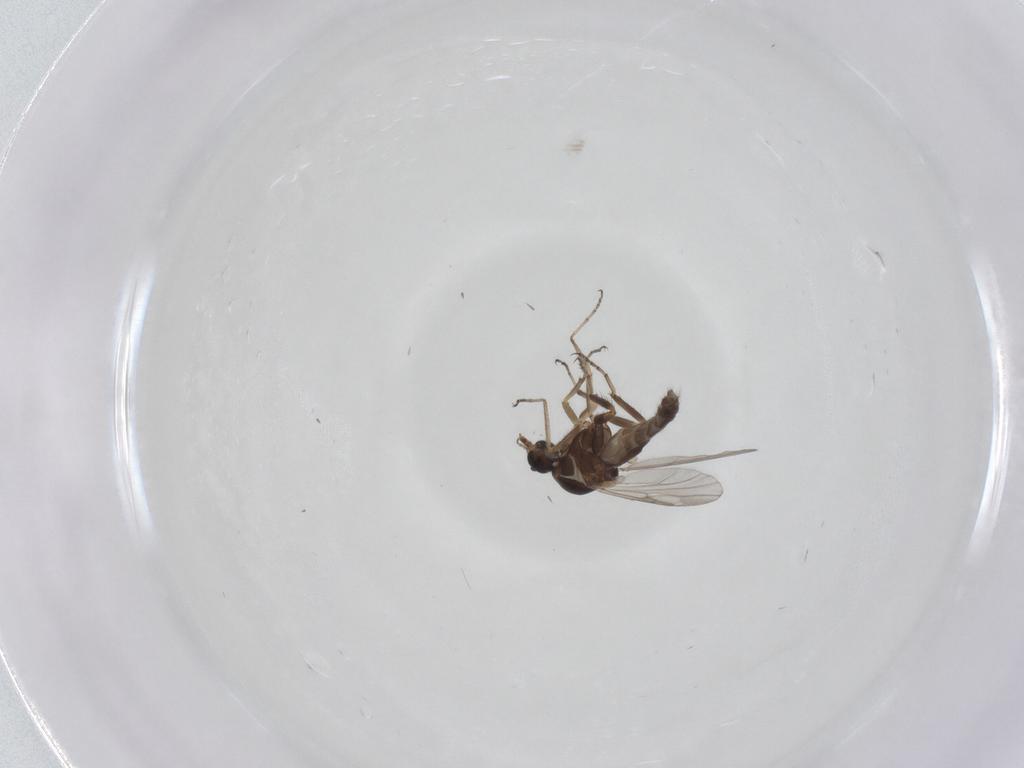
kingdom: Animalia
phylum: Arthropoda
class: Insecta
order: Diptera
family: Ceratopogonidae
